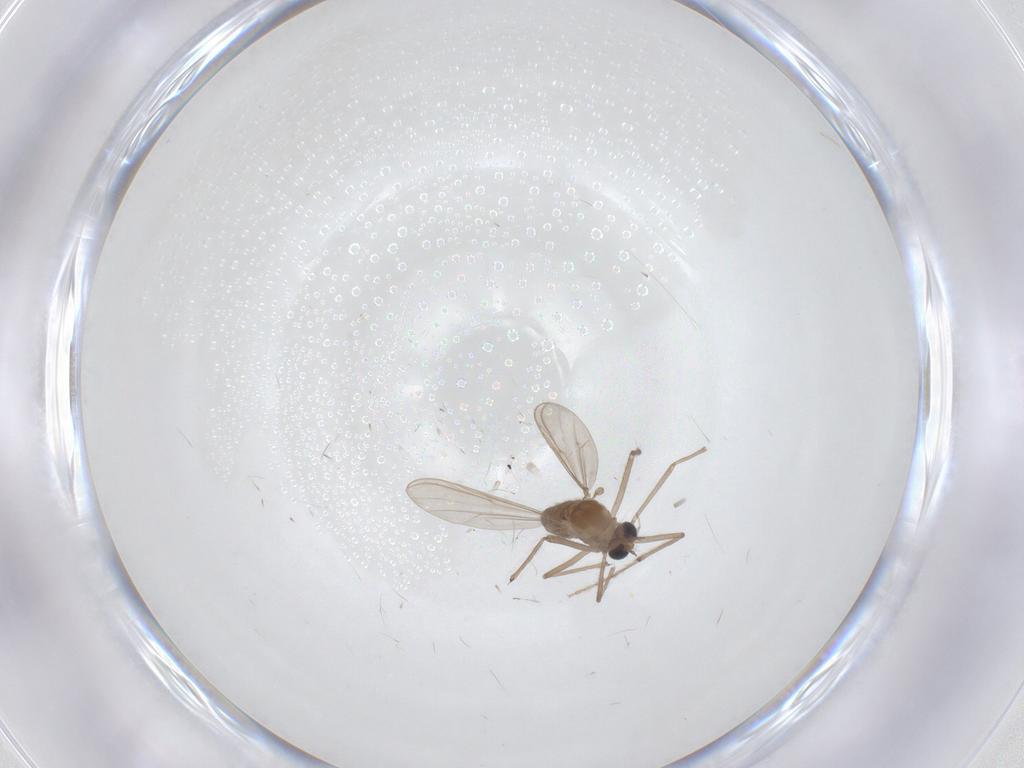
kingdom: Animalia
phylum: Arthropoda
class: Insecta
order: Diptera
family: Chironomidae
